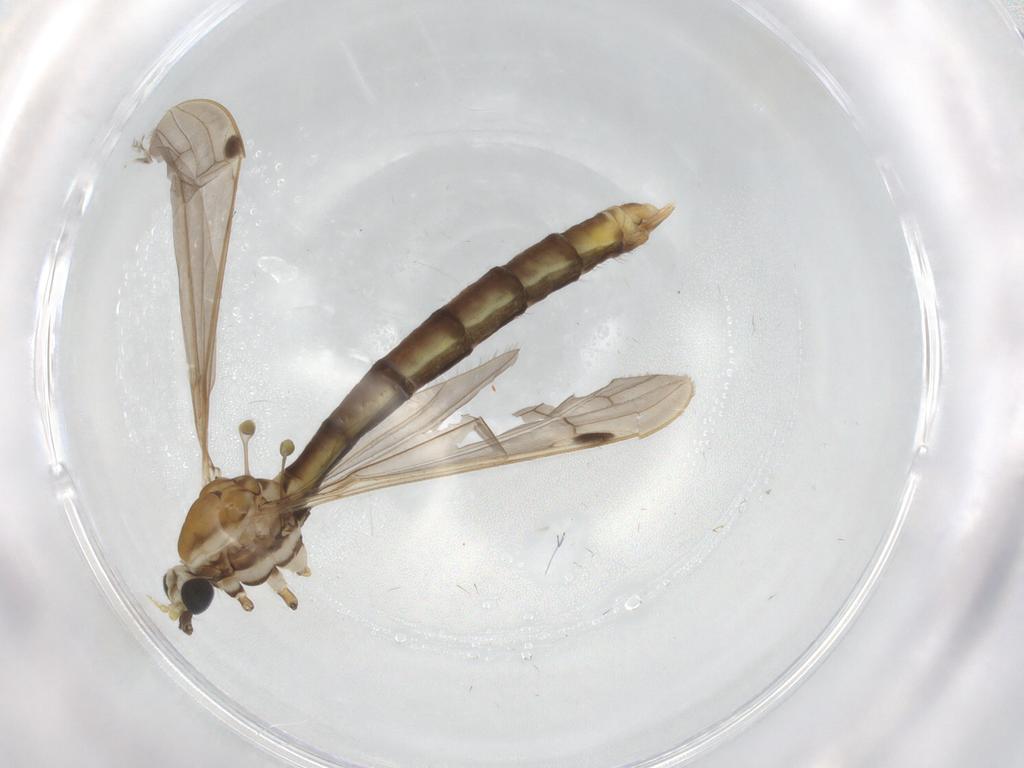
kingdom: Animalia
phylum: Arthropoda
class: Insecta
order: Diptera
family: Limoniidae
